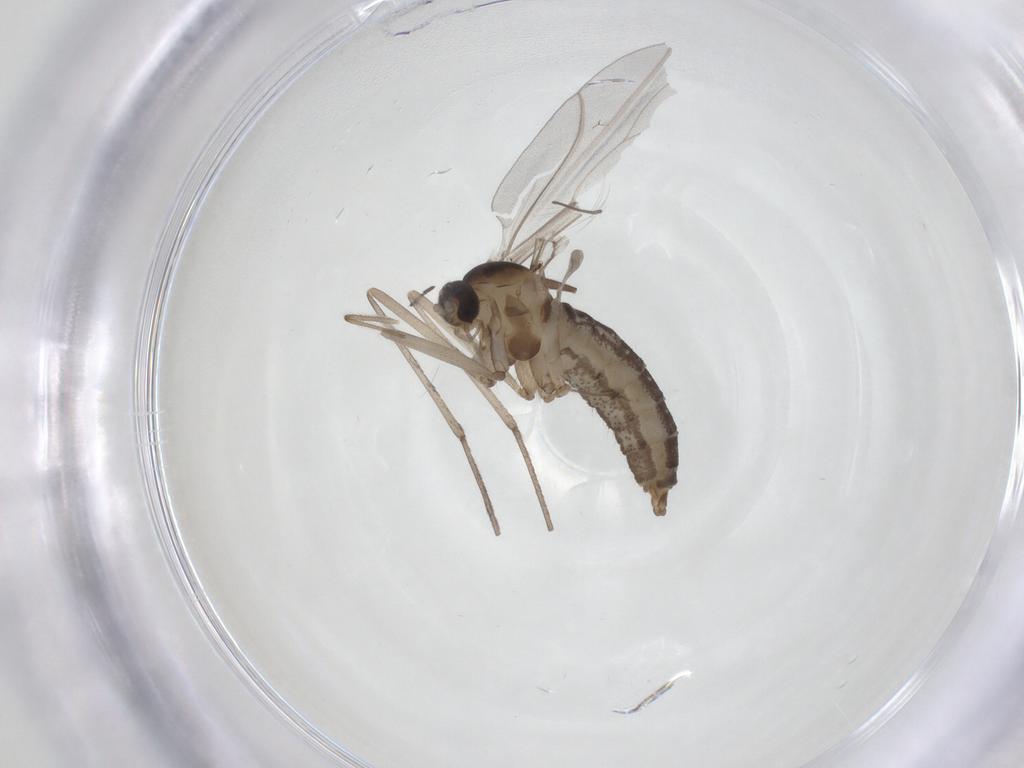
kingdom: Animalia
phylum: Arthropoda
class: Insecta
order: Diptera
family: Cecidomyiidae
